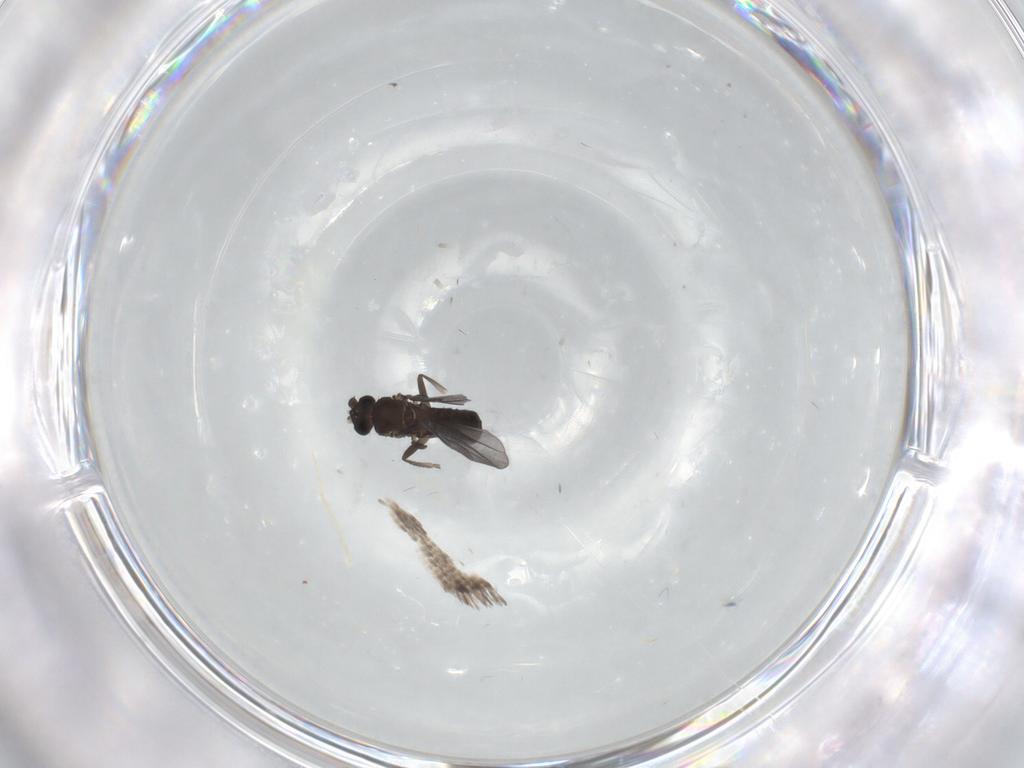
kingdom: Animalia
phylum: Arthropoda
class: Insecta
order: Diptera
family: Phoridae
